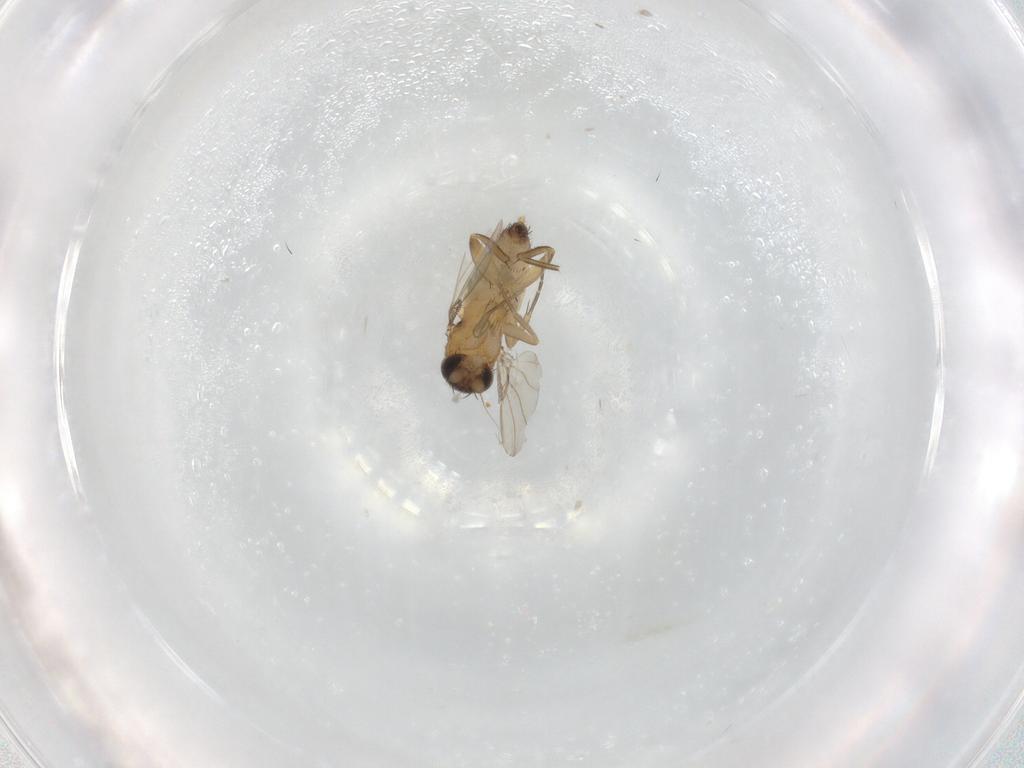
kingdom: Animalia
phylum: Arthropoda
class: Insecta
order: Diptera
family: Phoridae
